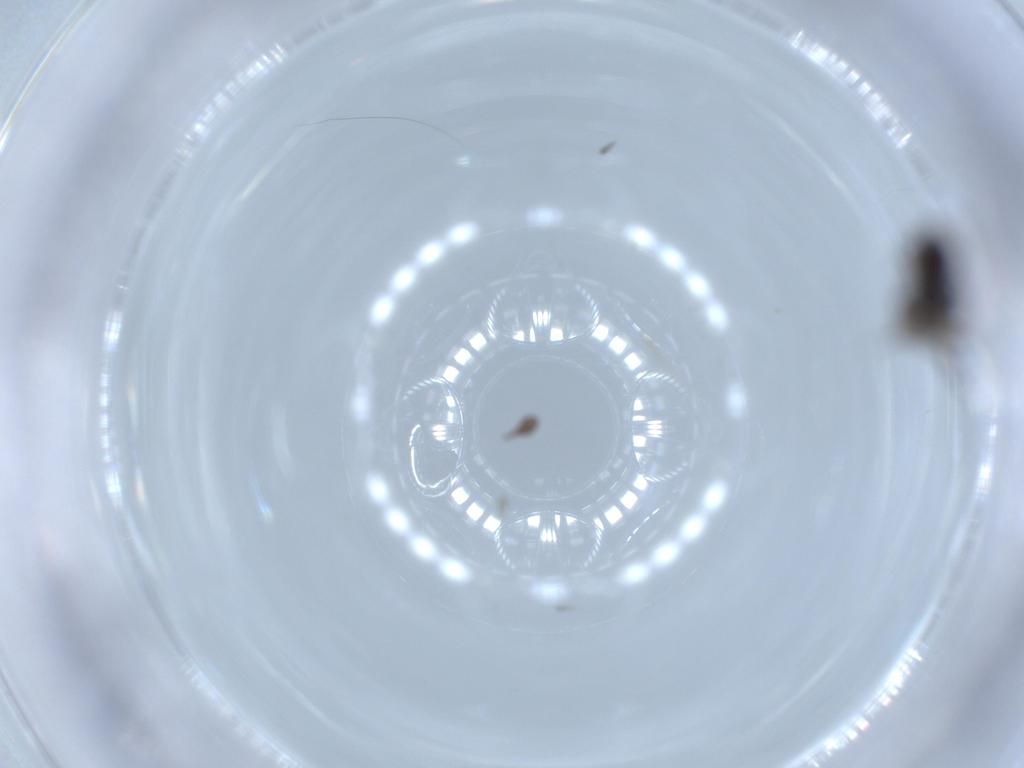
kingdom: Animalia
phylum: Arthropoda
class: Insecta
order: Diptera
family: Phoridae
